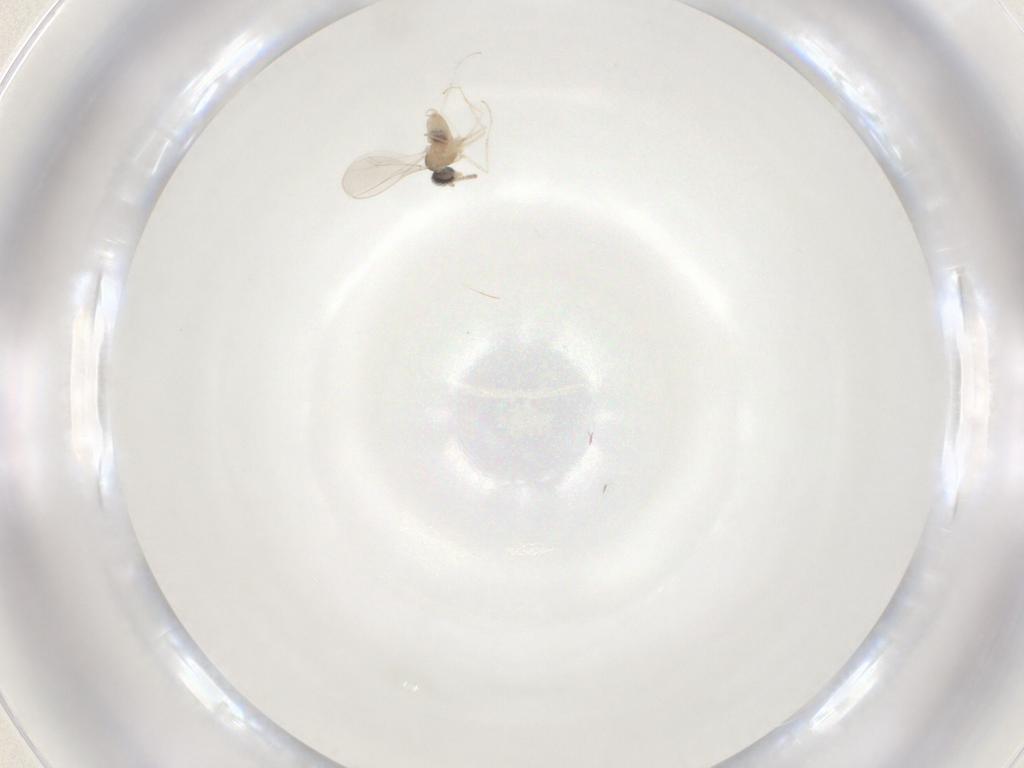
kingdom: Animalia
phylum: Arthropoda
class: Insecta
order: Diptera
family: Cecidomyiidae
